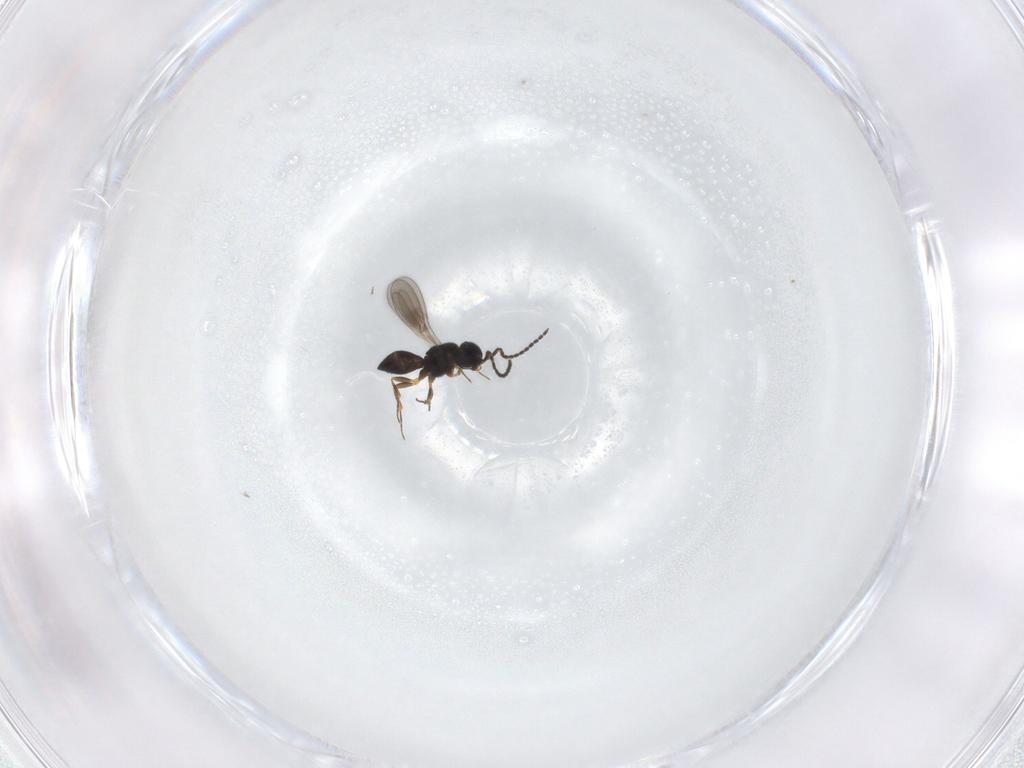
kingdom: Animalia
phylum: Arthropoda
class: Insecta
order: Hymenoptera
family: Scelionidae
